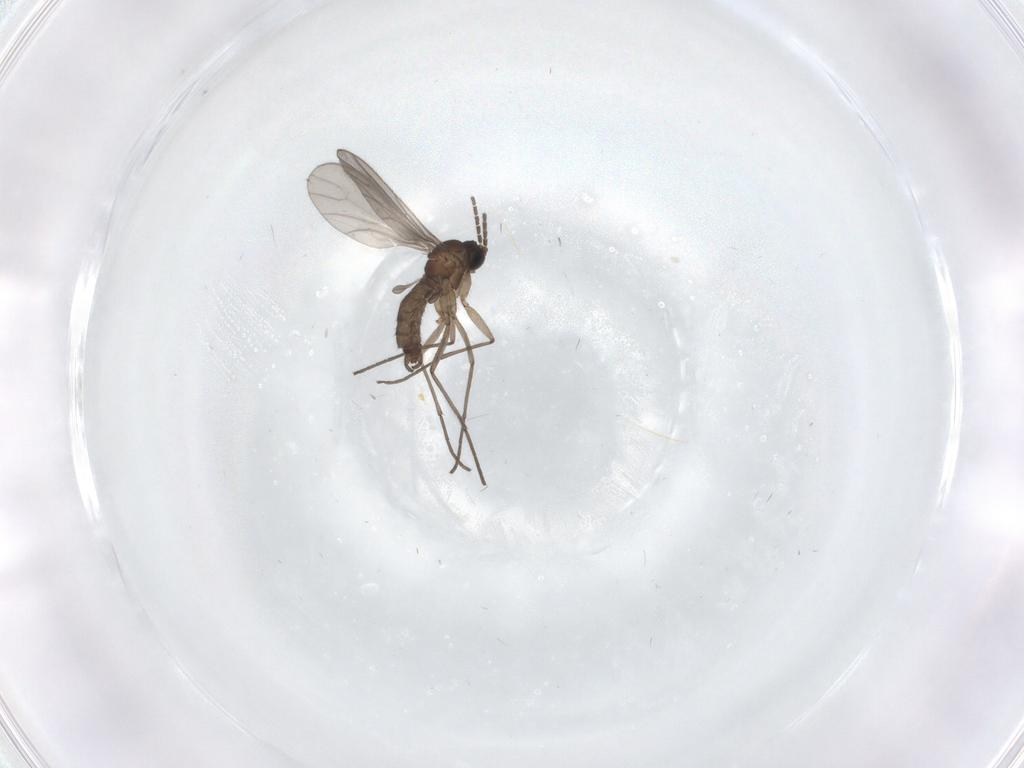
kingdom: Animalia
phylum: Arthropoda
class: Insecta
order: Diptera
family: Sciaridae
